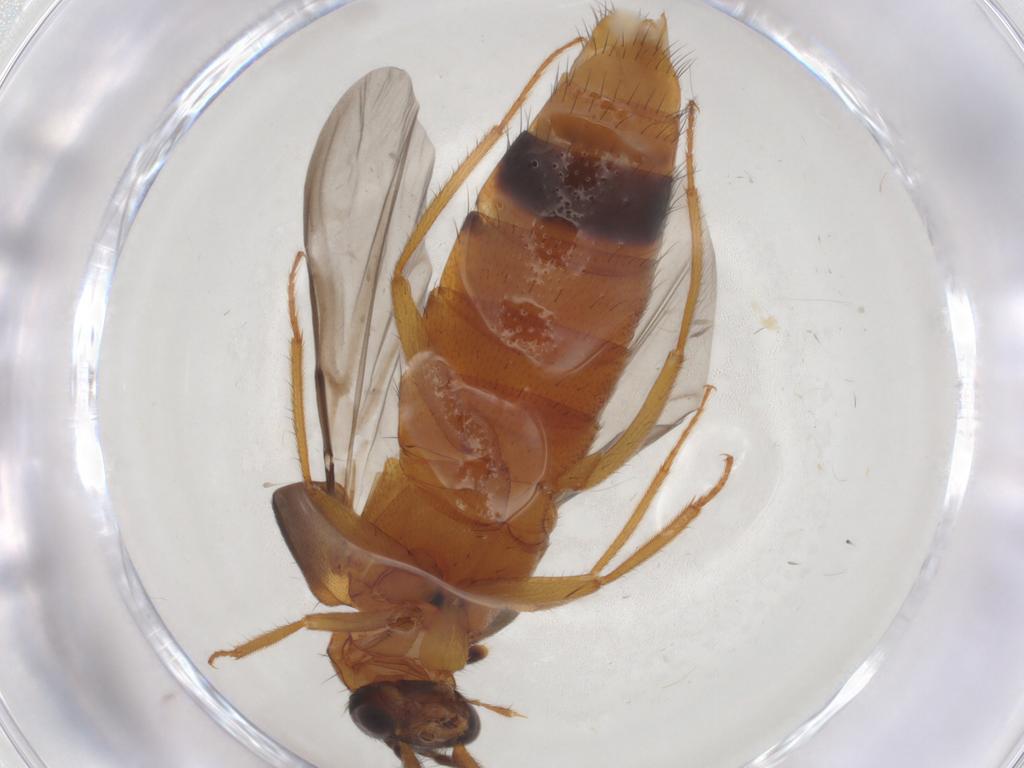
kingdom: Animalia
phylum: Arthropoda
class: Insecta
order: Coleoptera
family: Staphylinidae
